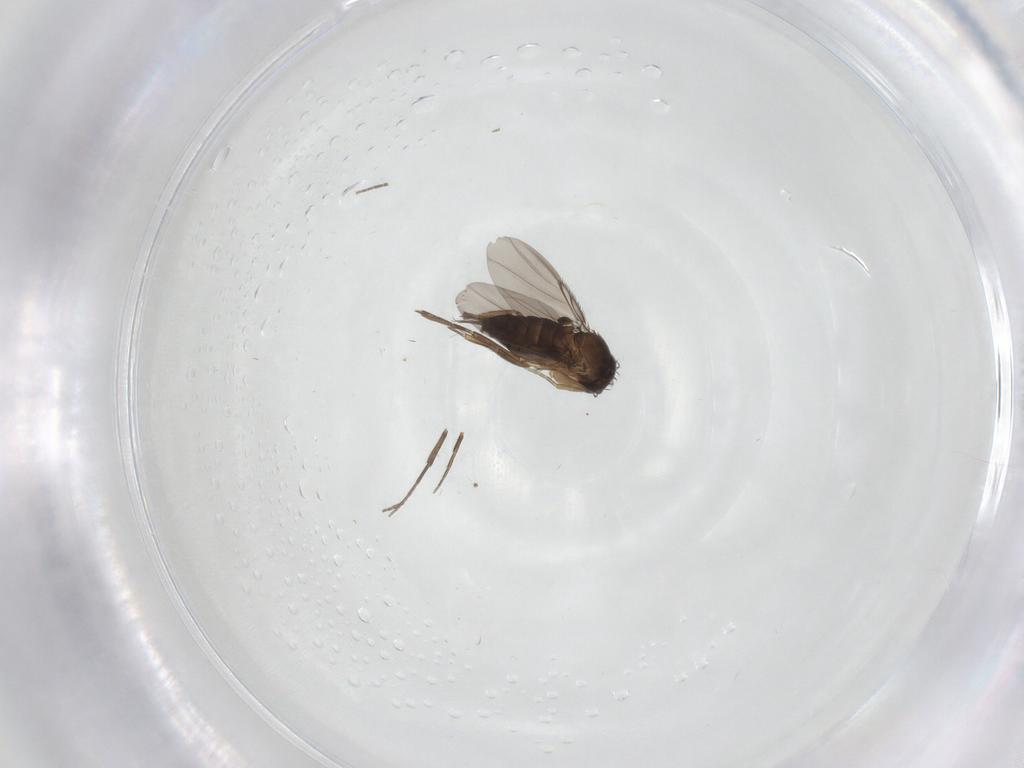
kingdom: Animalia
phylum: Arthropoda
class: Insecta
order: Diptera
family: Phoridae
